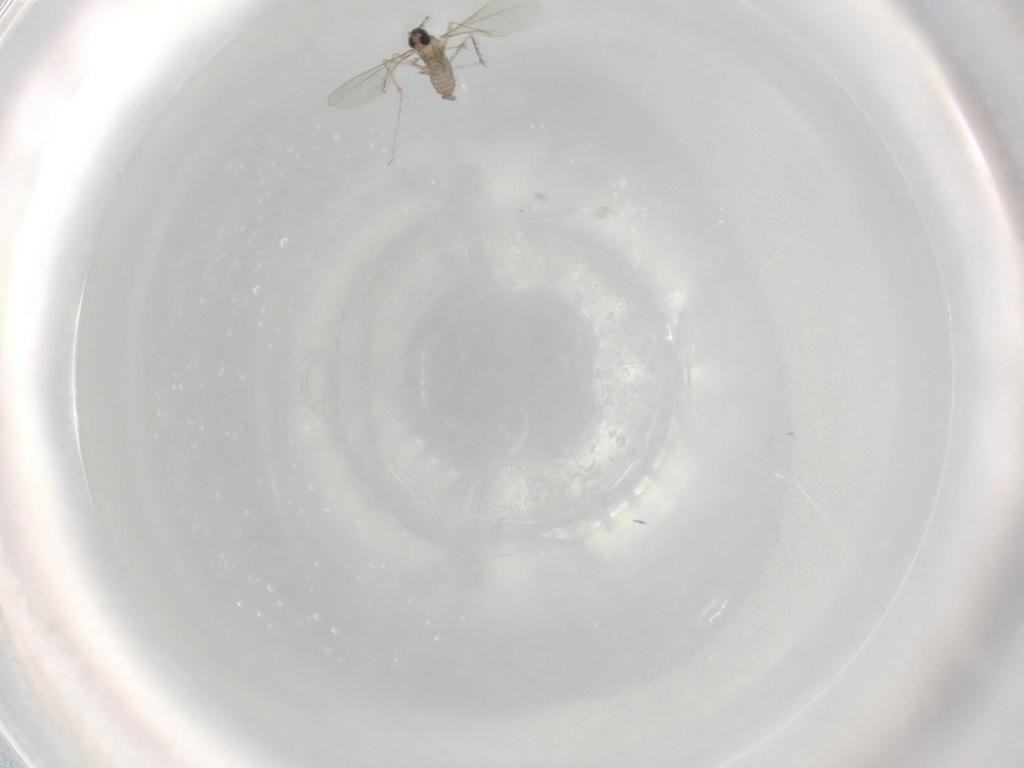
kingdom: Animalia
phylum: Arthropoda
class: Insecta
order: Diptera
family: Cecidomyiidae
